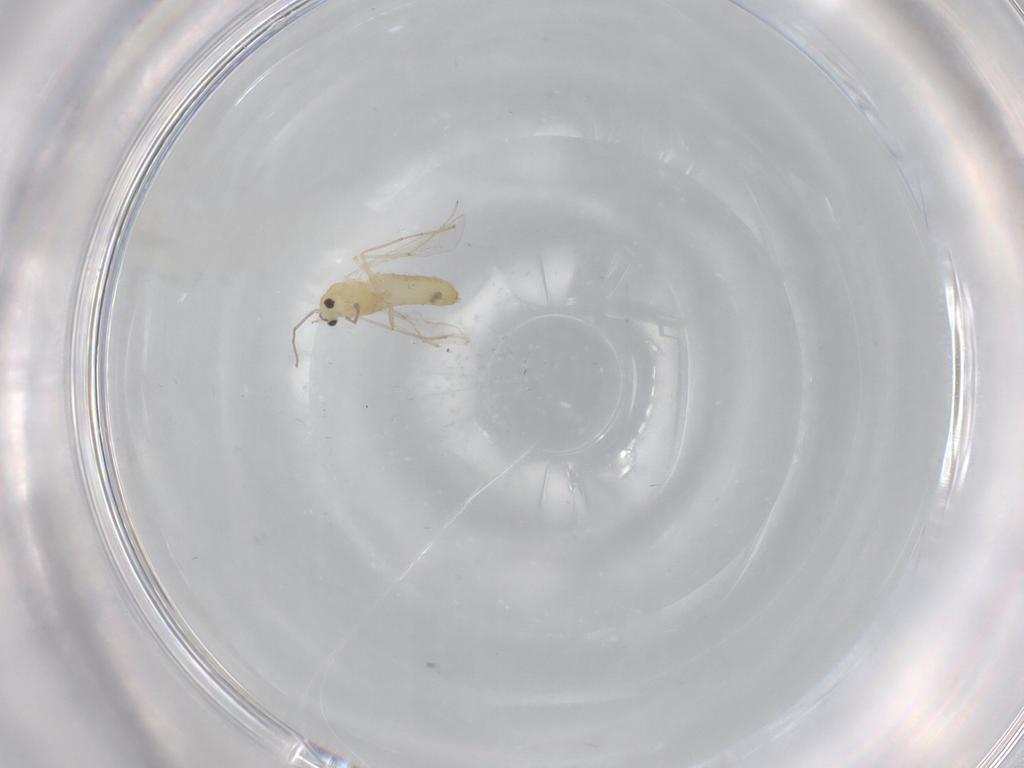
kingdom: Animalia
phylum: Arthropoda
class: Insecta
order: Diptera
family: Chironomidae
